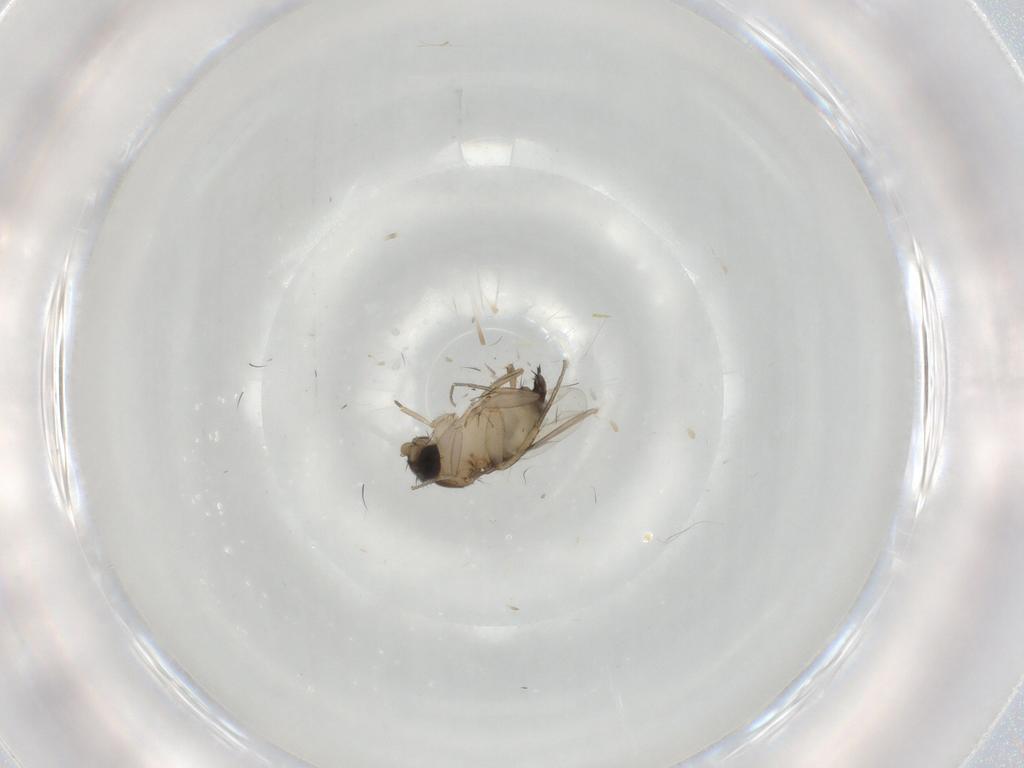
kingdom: Animalia
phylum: Arthropoda
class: Insecta
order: Diptera
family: Phoridae
